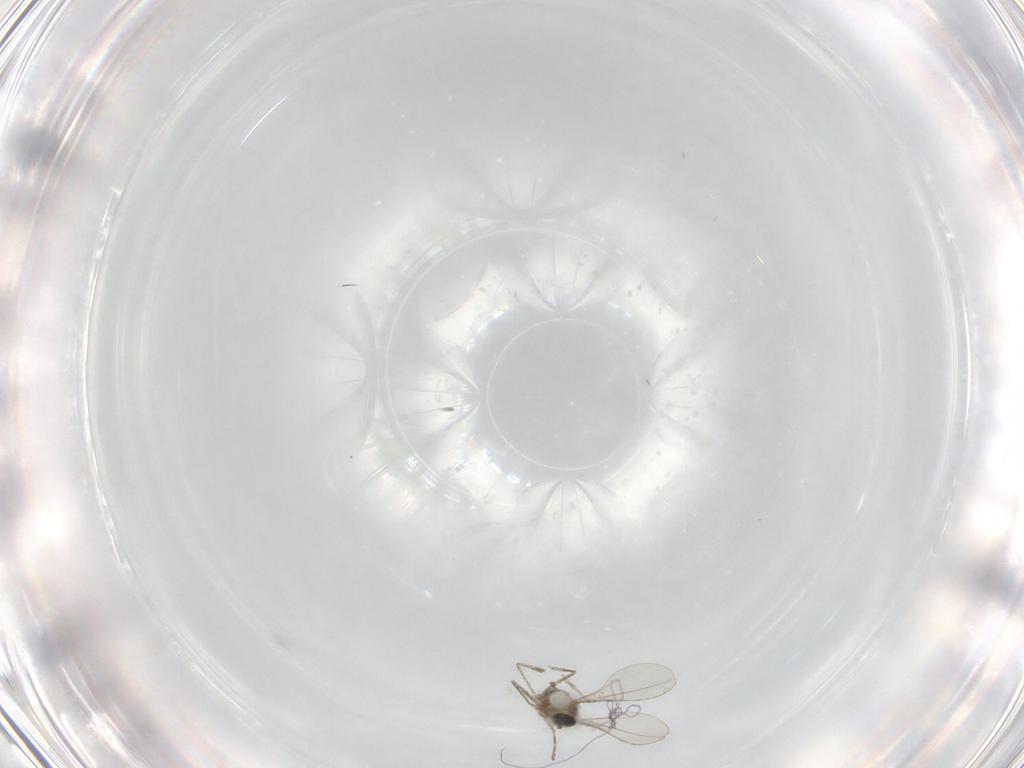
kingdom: Animalia
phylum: Arthropoda
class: Insecta
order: Diptera
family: Cecidomyiidae
